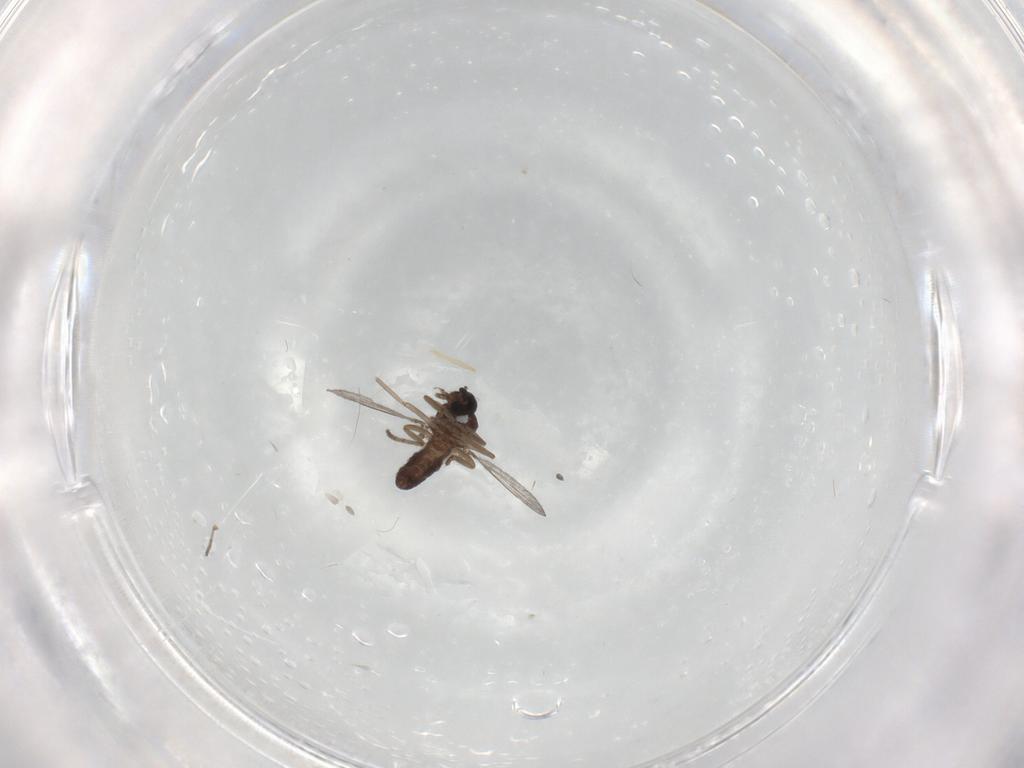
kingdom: Animalia
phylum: Arthropoda
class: Insecta
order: Diptera
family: Ceratopogonidae
